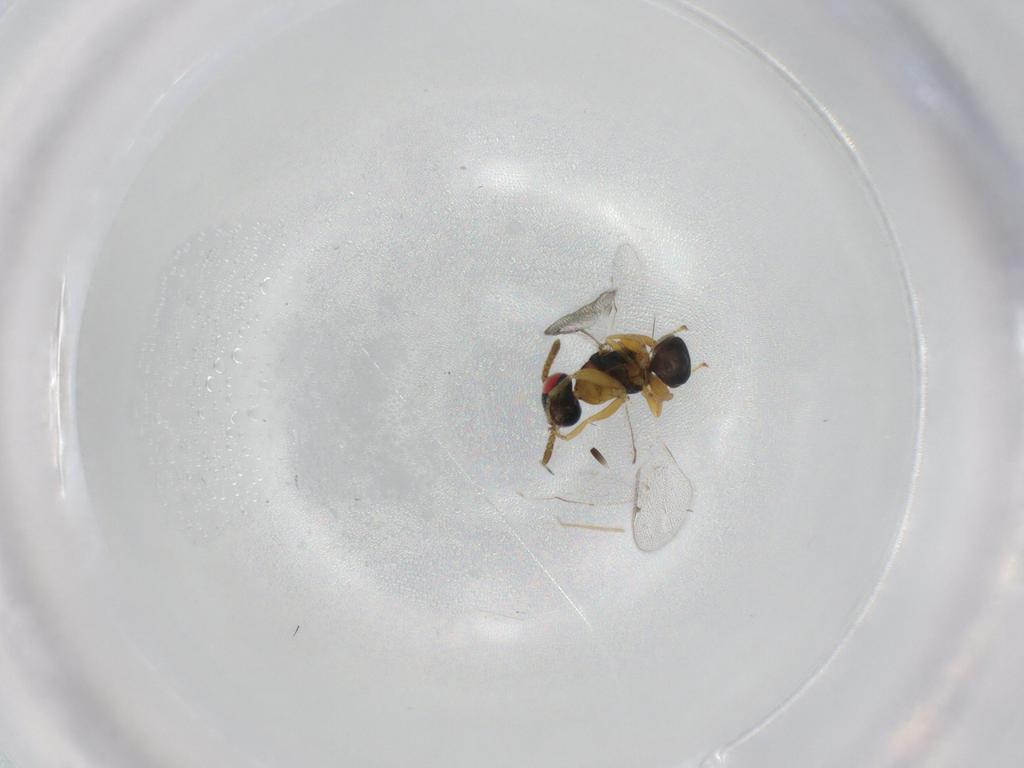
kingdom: Animalia
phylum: Arthropoda
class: Insecta
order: Hymenoptera
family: Torymidae
